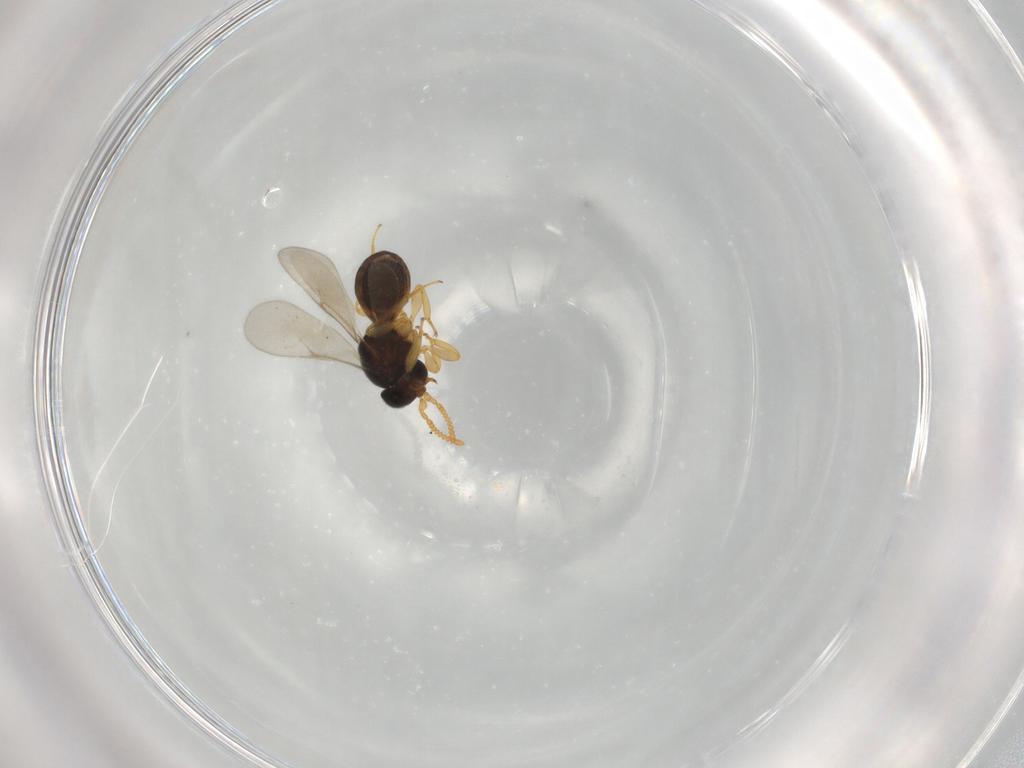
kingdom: Animalia
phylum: Arthropoda
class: Insecta
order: Hymenoptera
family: Scelionidae
